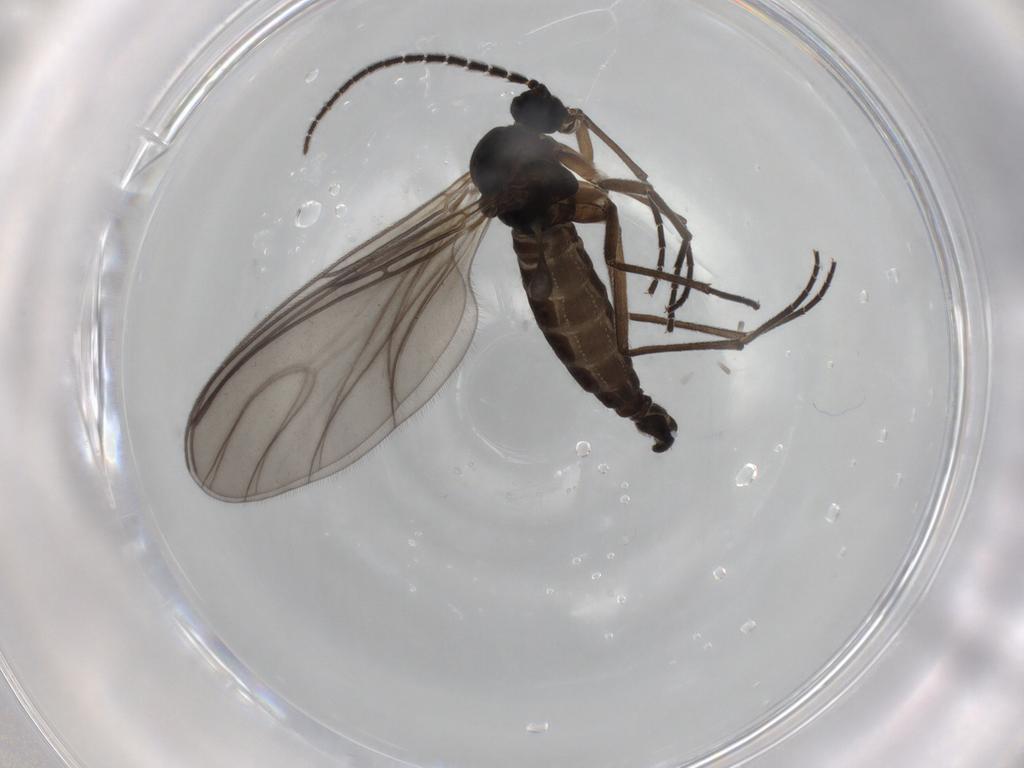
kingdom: Animalia
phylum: Arthropoda
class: Insecta
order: Diptera
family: Sciaridae
